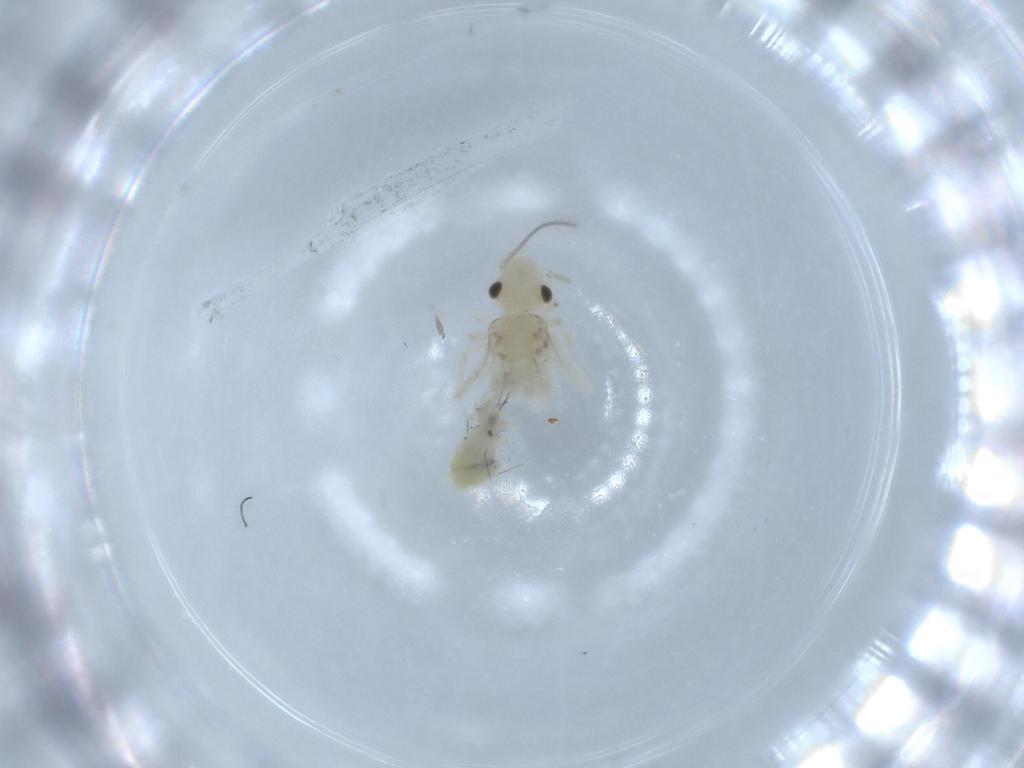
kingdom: Animalia
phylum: Arthropoda
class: Insecta
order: Psocodea
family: Caeciliusidae
